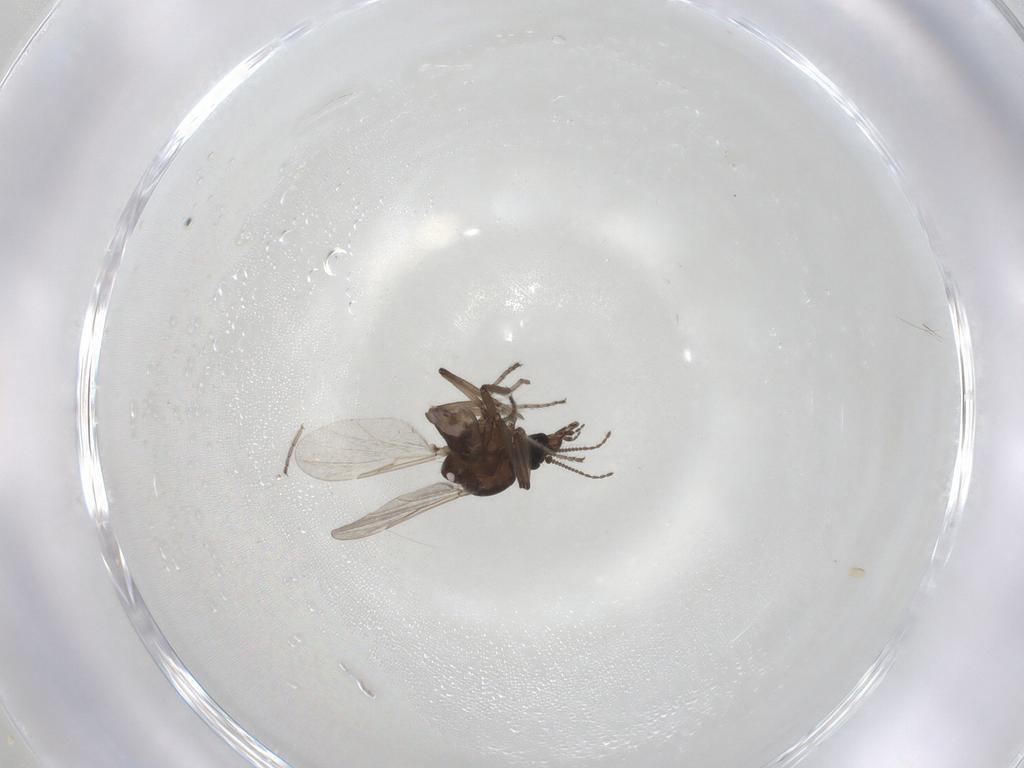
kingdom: Animalia
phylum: Arthropoda
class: Insecta
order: Diptera
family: Ceratopogonidae
